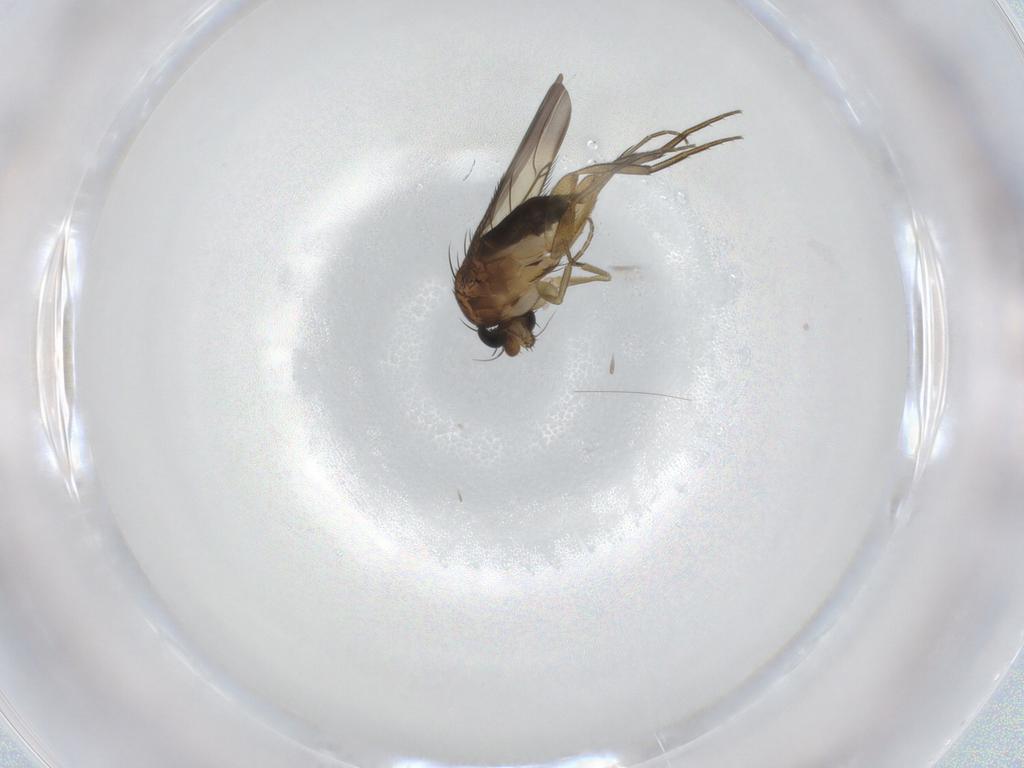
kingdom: Animalia
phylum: Arthropoda
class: Insecta
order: Diptera
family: Phoridae
